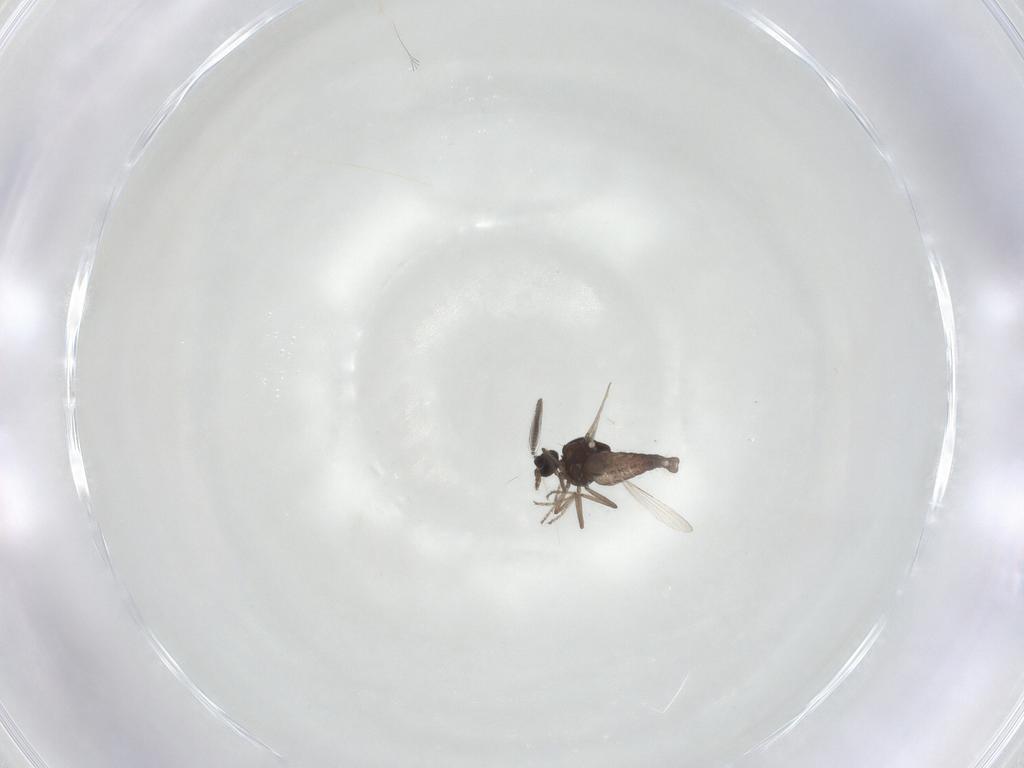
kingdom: Animalia
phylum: Arthropoda
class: Insecta
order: Diptera
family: Ceratopogonidae
